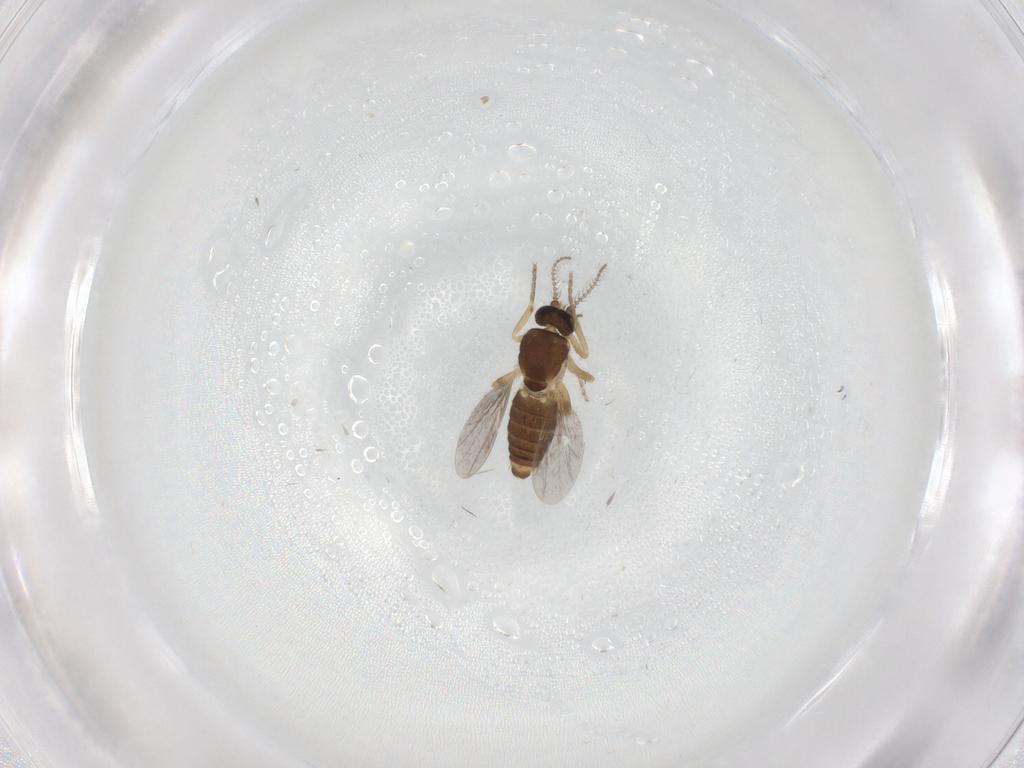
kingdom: Animalia
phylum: Arthropoda
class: Insecta
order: Diptera
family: Ceratopogonidae
